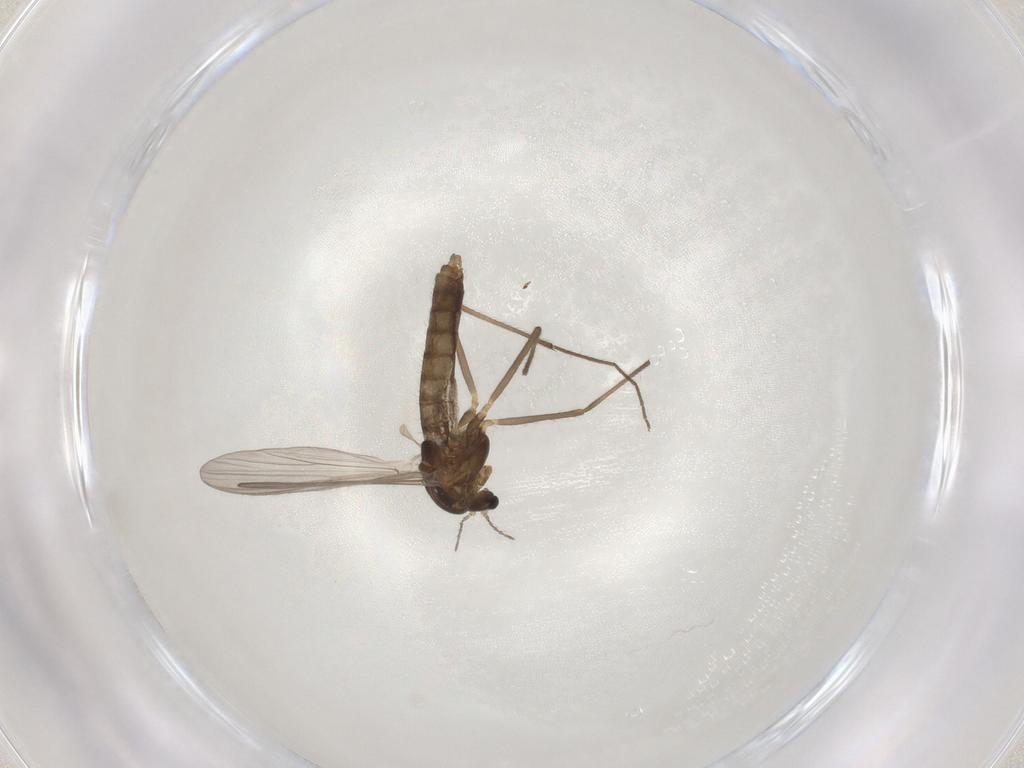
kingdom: Animalia
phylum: Arthropoda
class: Insecta
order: Diptera
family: Chironomidae
